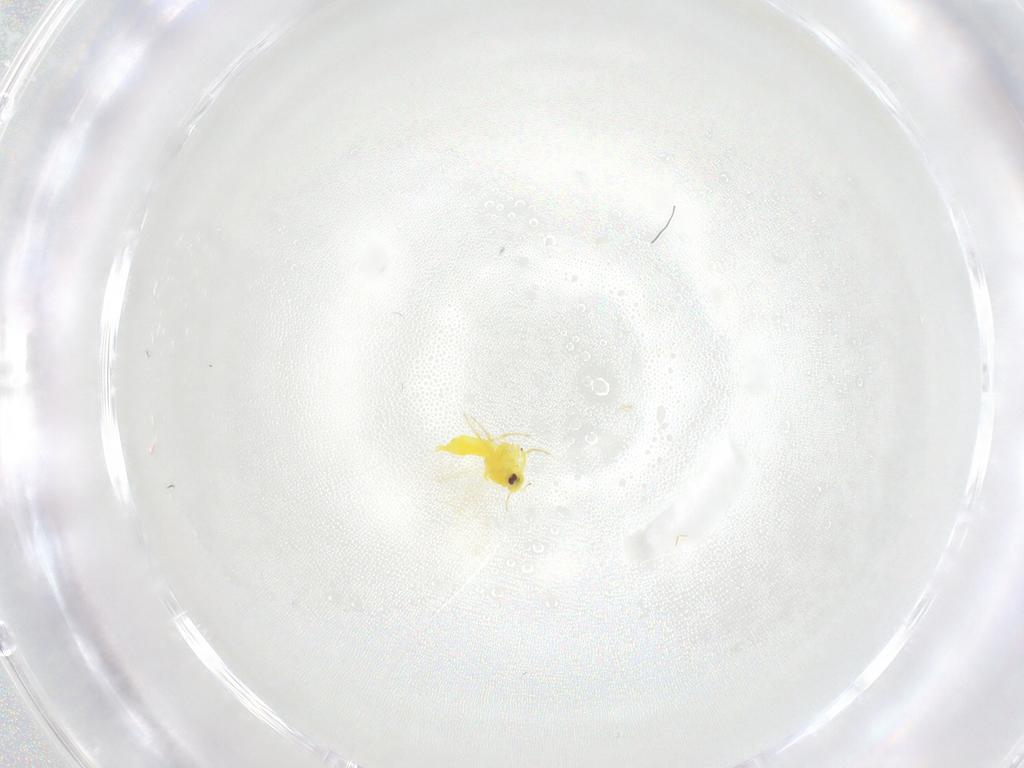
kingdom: Animalia
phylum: Arthropoda
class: Insecta
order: Hemiptera
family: Aleyrodidae
